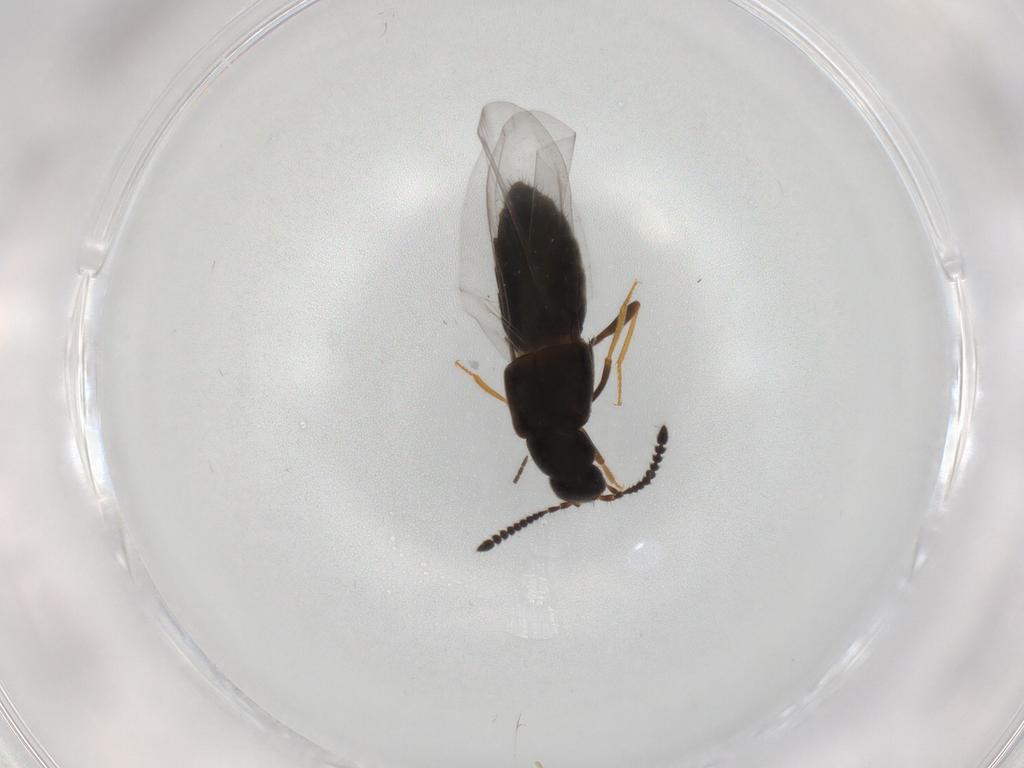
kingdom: Animalia
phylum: Arthropoda
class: Insecta
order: Coleoptera
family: Staphylinidae
